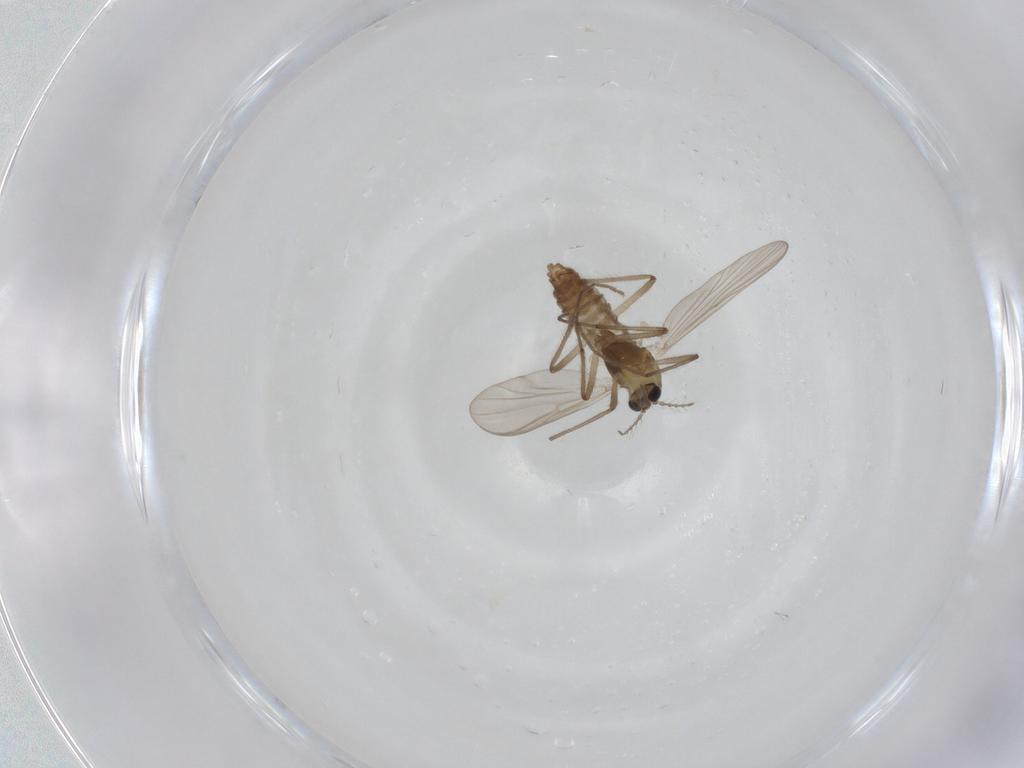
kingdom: Animalia
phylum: Arthropoda
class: Insecta
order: Diptera
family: Chironomidae
